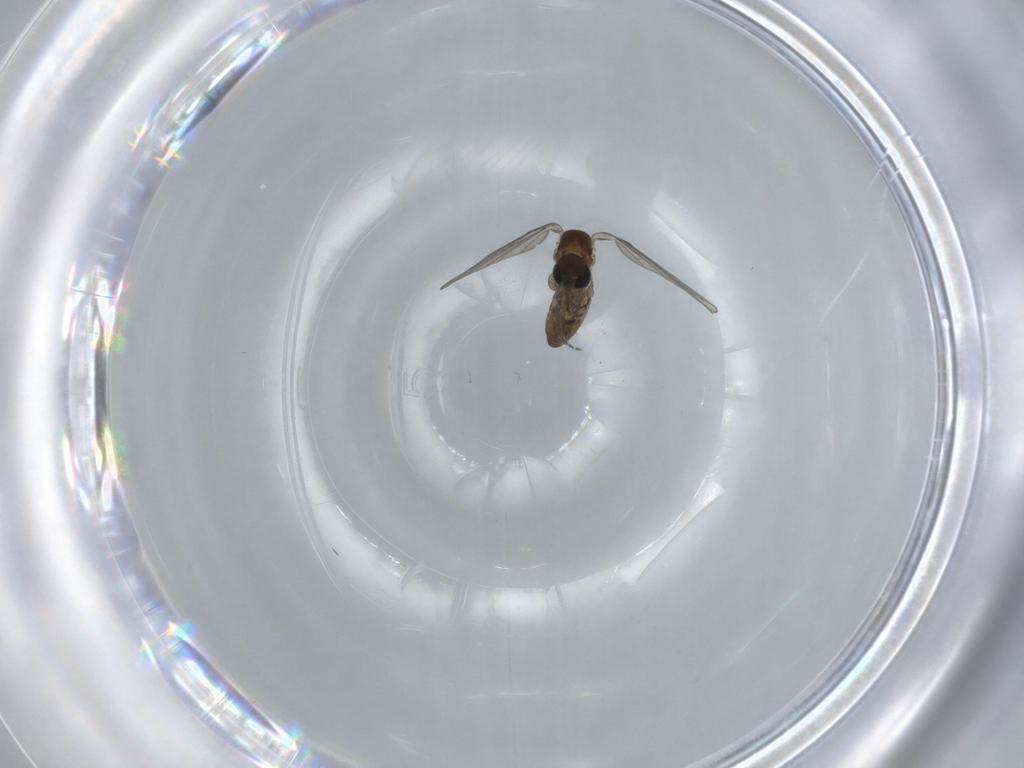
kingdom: Animalia
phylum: Arthropoda
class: Insecta
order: Diptera
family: Psychodidae
